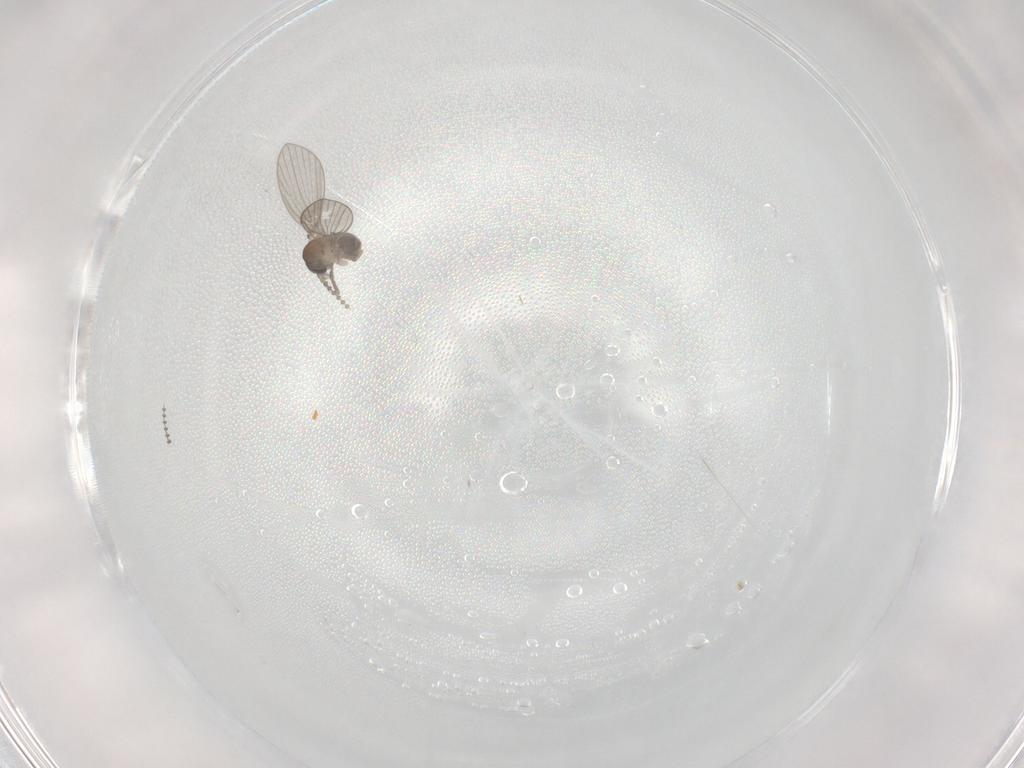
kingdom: Animalia
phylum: Arthropoda
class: Insecta
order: Diptera
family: Psychodidae
